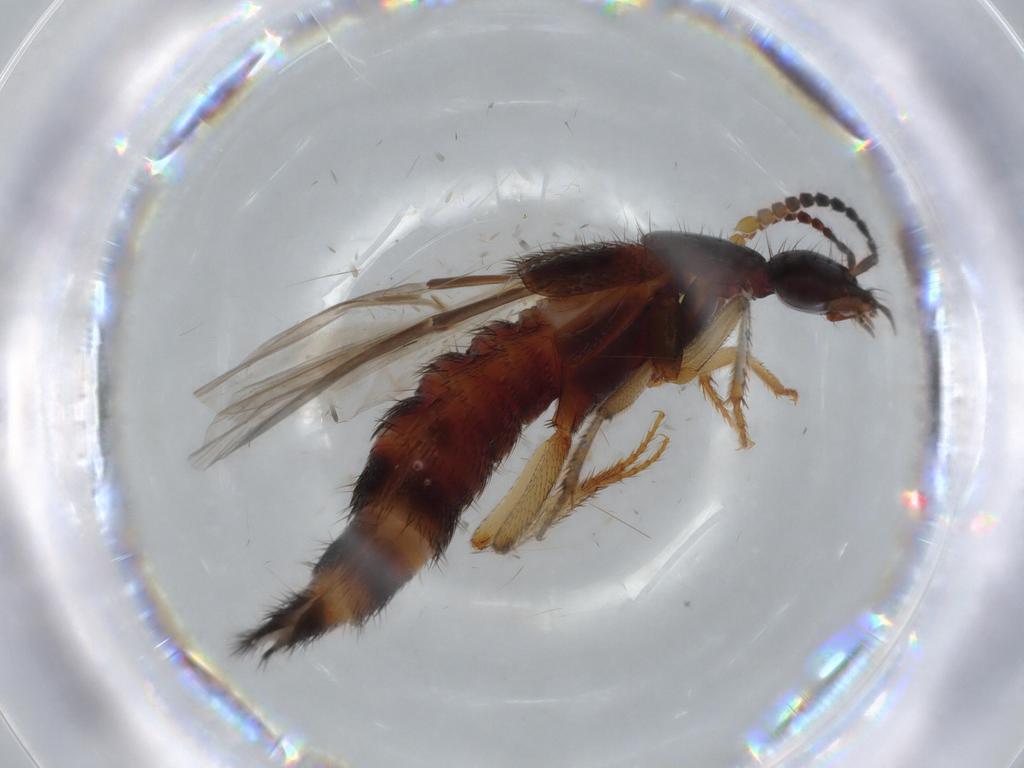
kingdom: Animalia
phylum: Arthropoda
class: Insecta
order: Coleoptera
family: Staphylinidae
